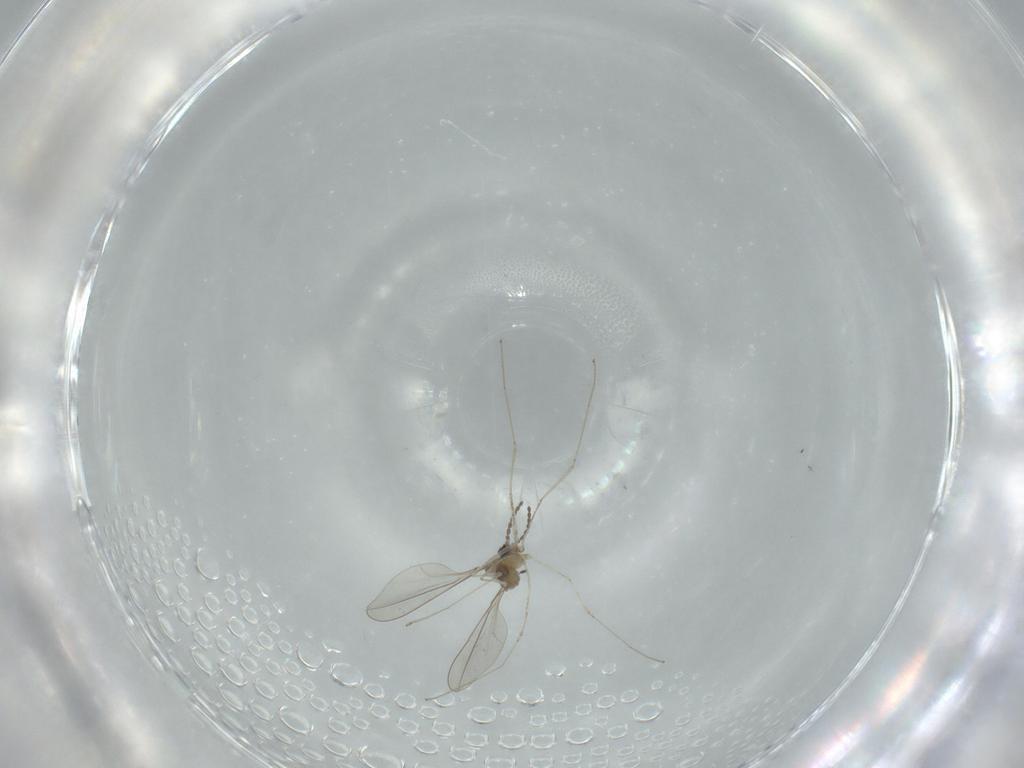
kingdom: Animalia
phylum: Arthropoda
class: Insecta
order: Diptera
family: Cecidomyiidae
